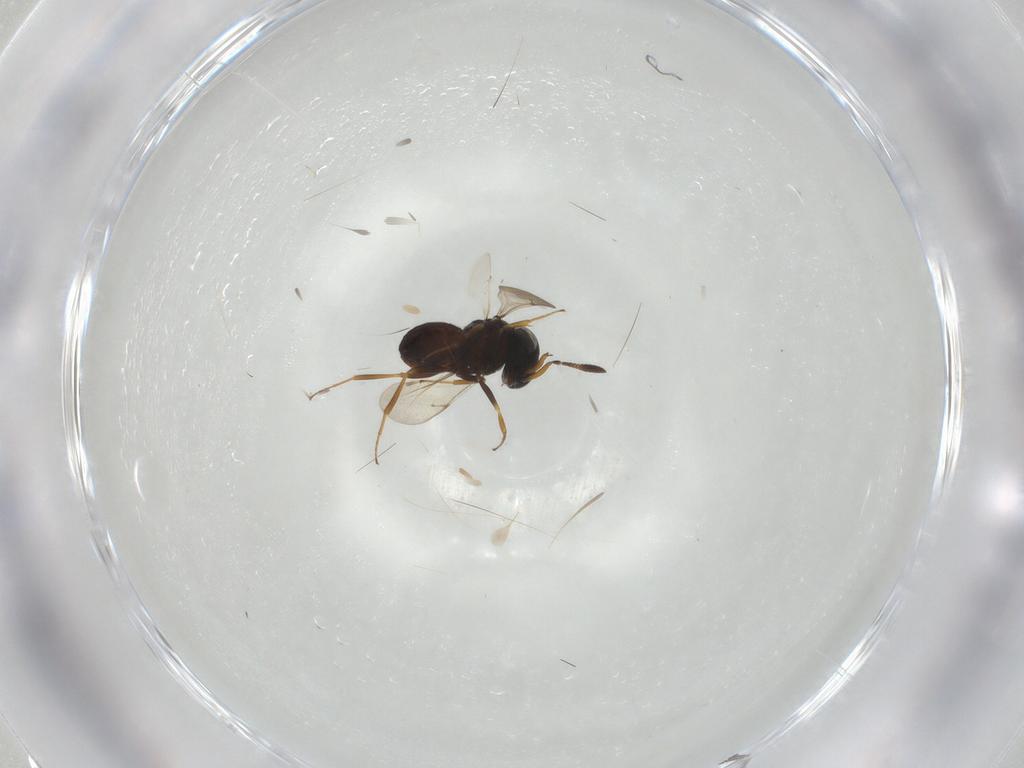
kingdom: Animalia
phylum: Arthropoda
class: Insecta
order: Hymenoptera
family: Scelionidae
